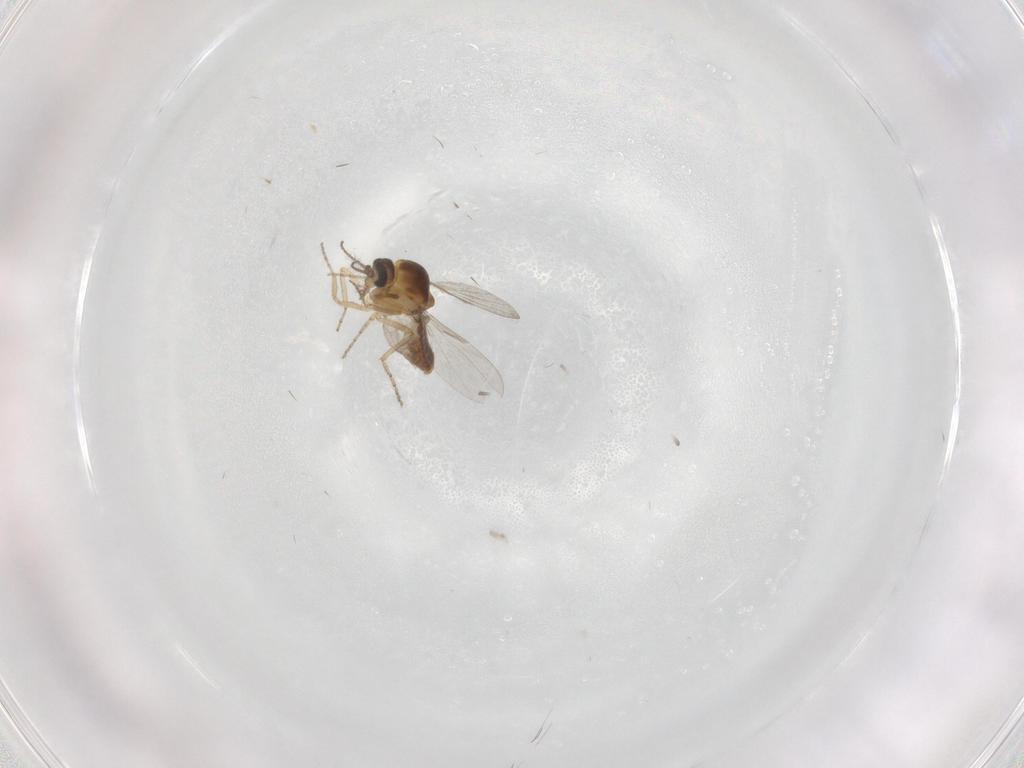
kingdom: Animalia
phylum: Arthropoda
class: Insecta
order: Diptera
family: Ceratopogonidae
